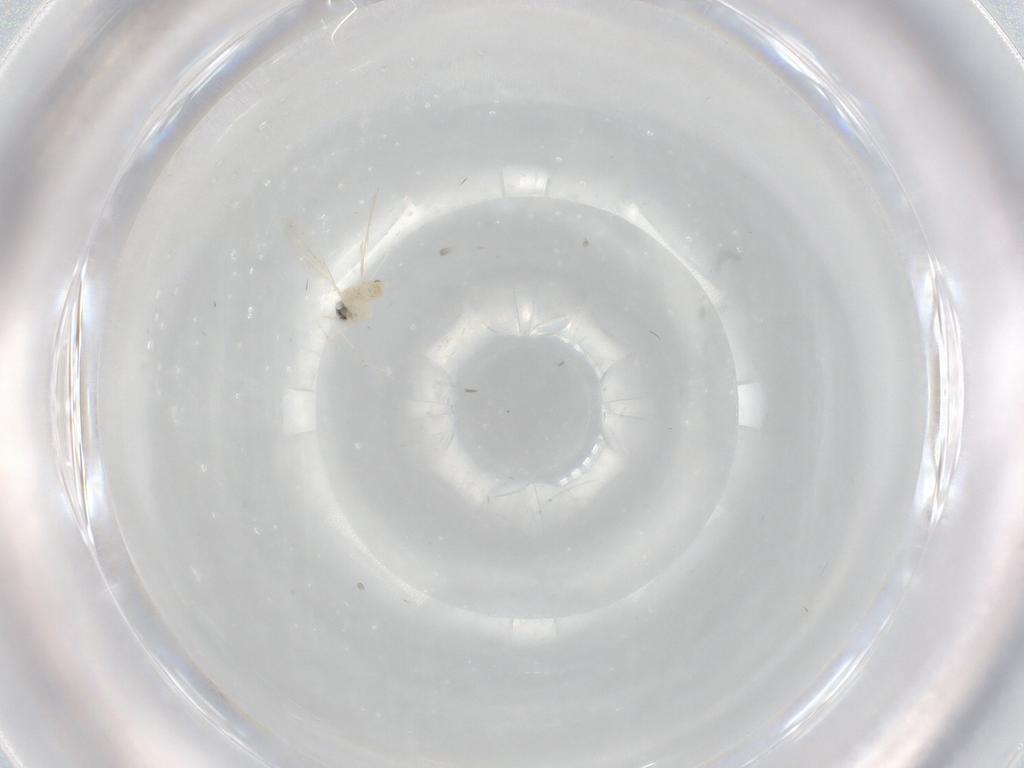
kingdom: Animalia
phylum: Arthropoda
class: Insecta
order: Diptera
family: Cecidomyiidae
